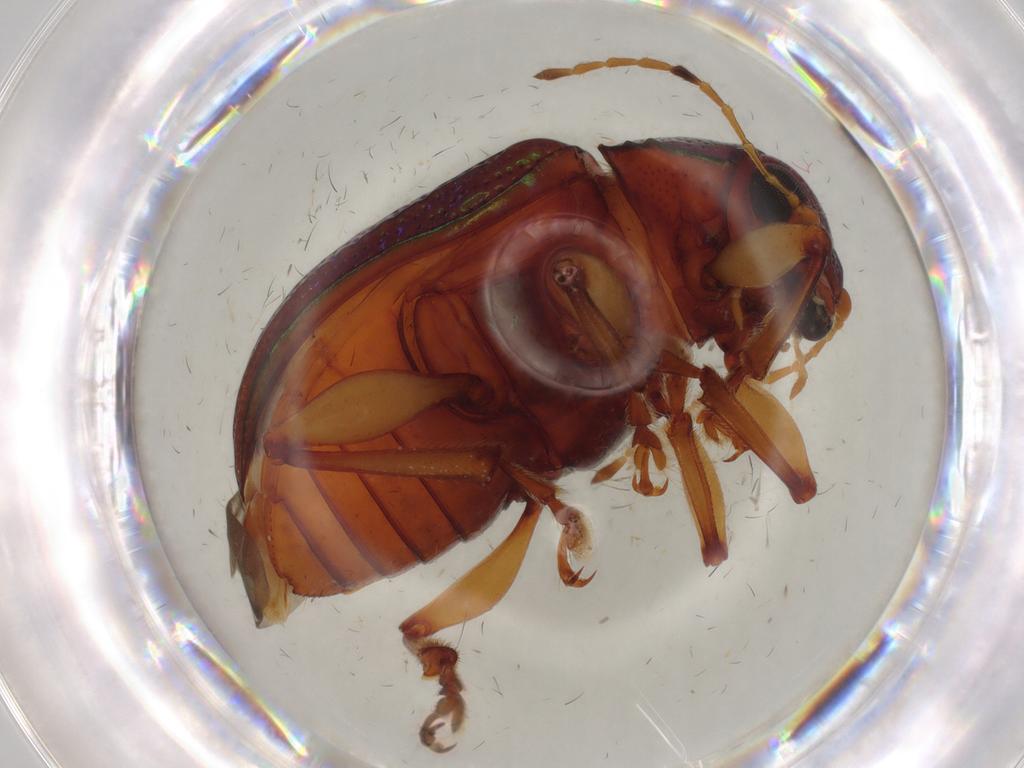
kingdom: Animalia
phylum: Arthropoda
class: Insecta
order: Coleoptera
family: Chrysomelidae
